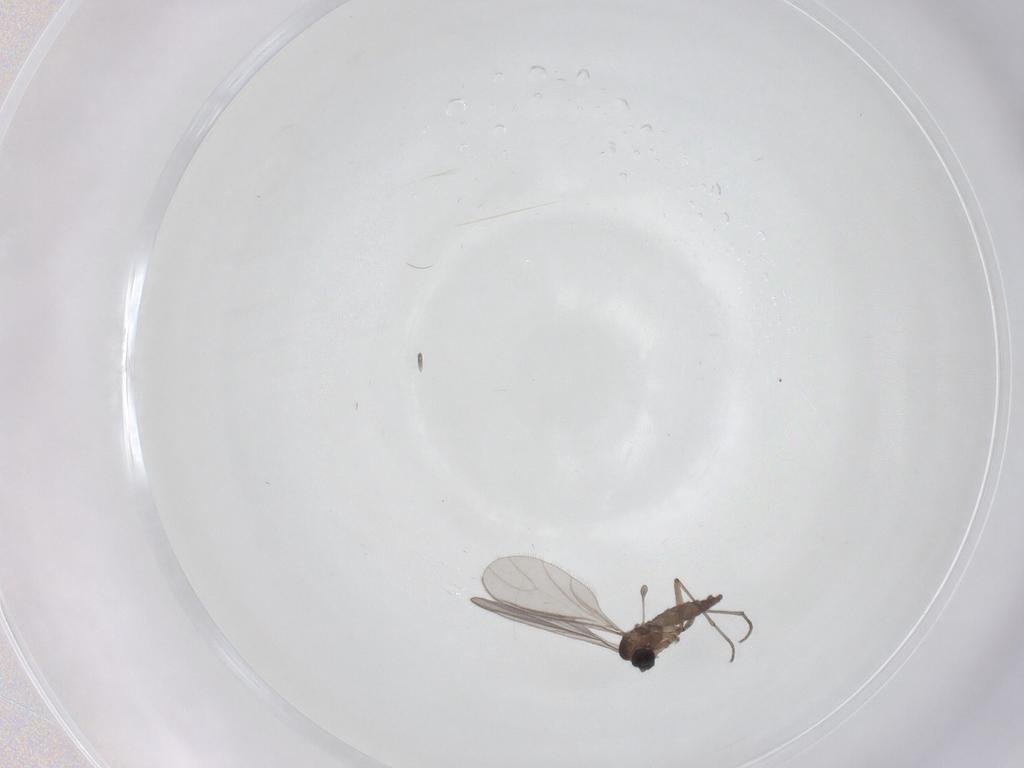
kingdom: Animalia
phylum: Arthropoda
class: Insecta
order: Diptera
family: Sciaridae
